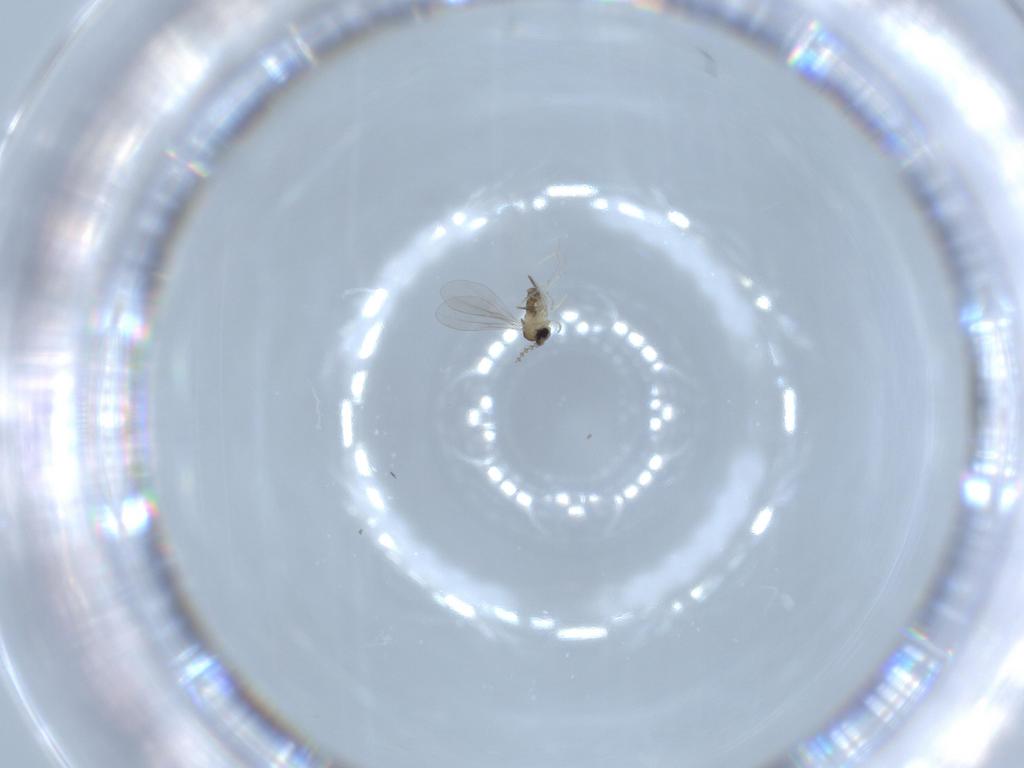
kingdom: Animalia
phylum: Arthropoda
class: Insecta
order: Diptera
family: Cecidomyiidae
